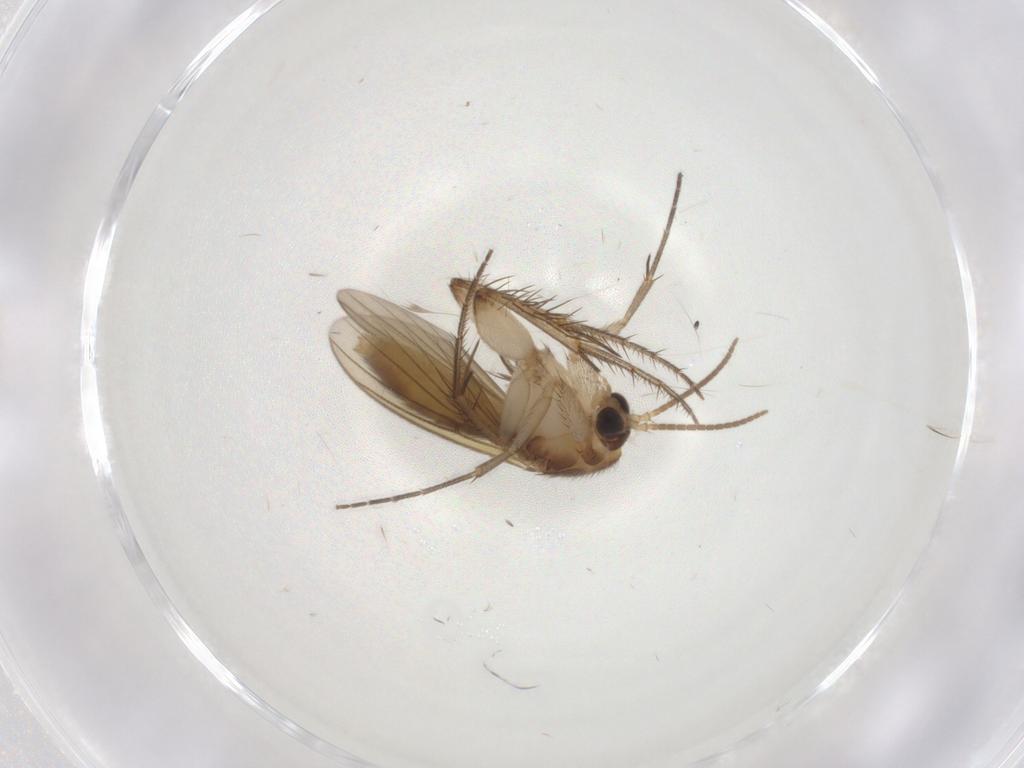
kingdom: Animalia
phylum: Arthropoda
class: Insecta
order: Diptera
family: Mycetophilidae
